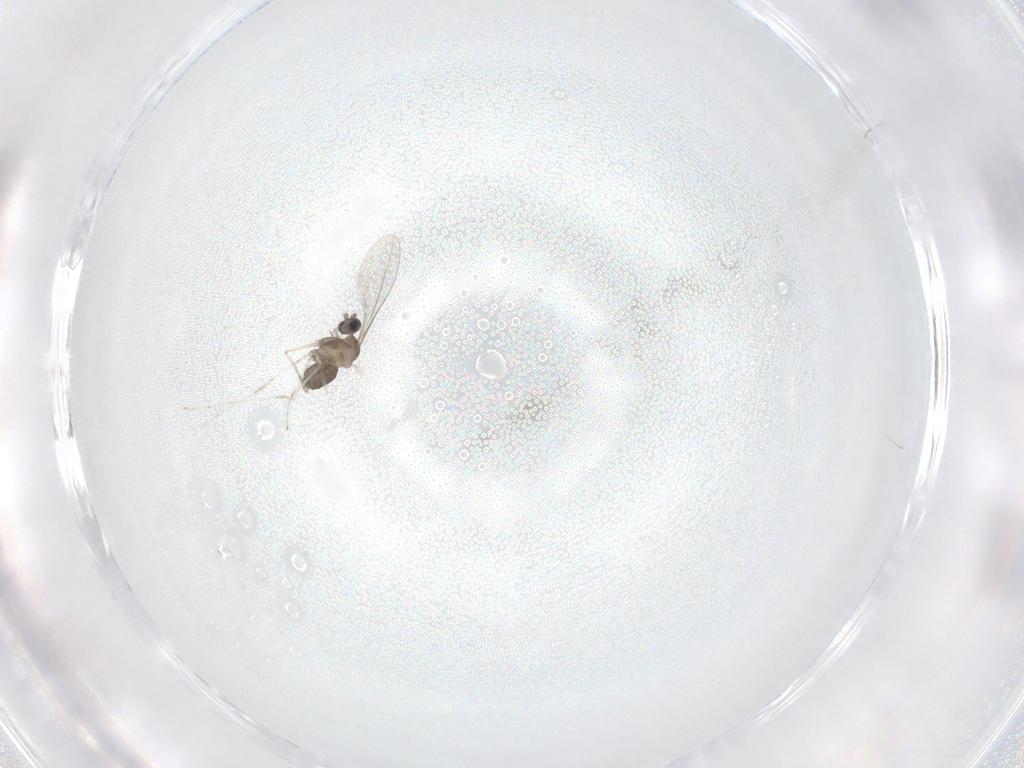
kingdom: Animalia
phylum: Arthropoda
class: Insecta
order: Diptera
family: Cecidomyiidae
